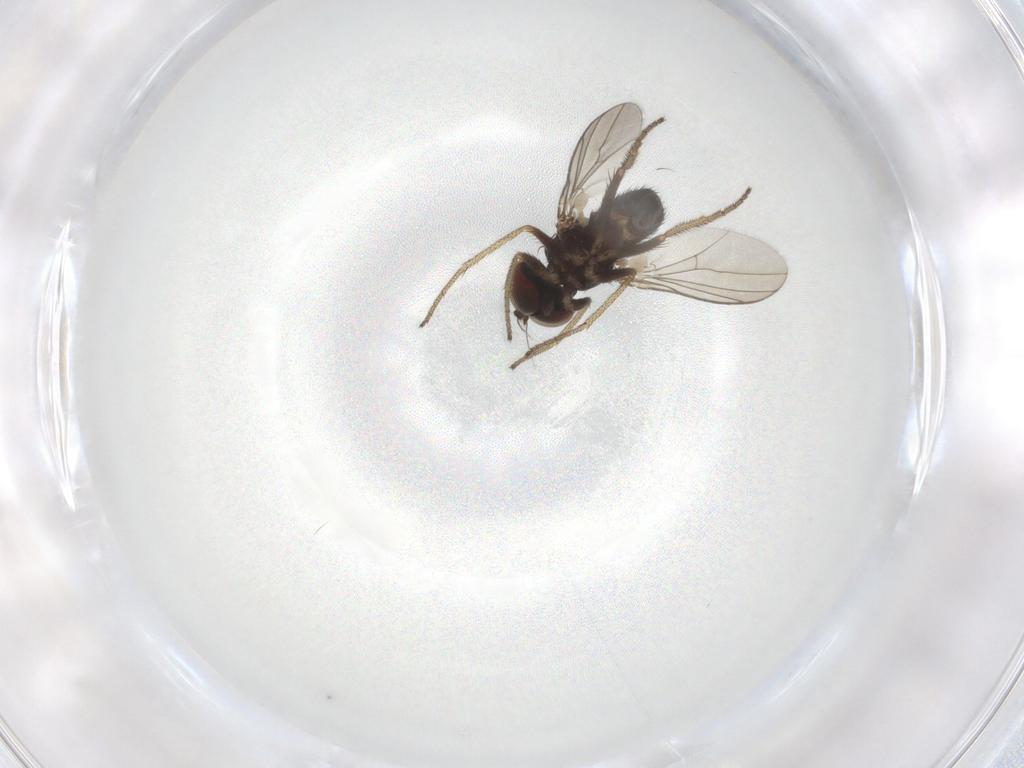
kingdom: Animalia
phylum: Arthropoda
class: Insecta
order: Diptera
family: Dolichopodidae
